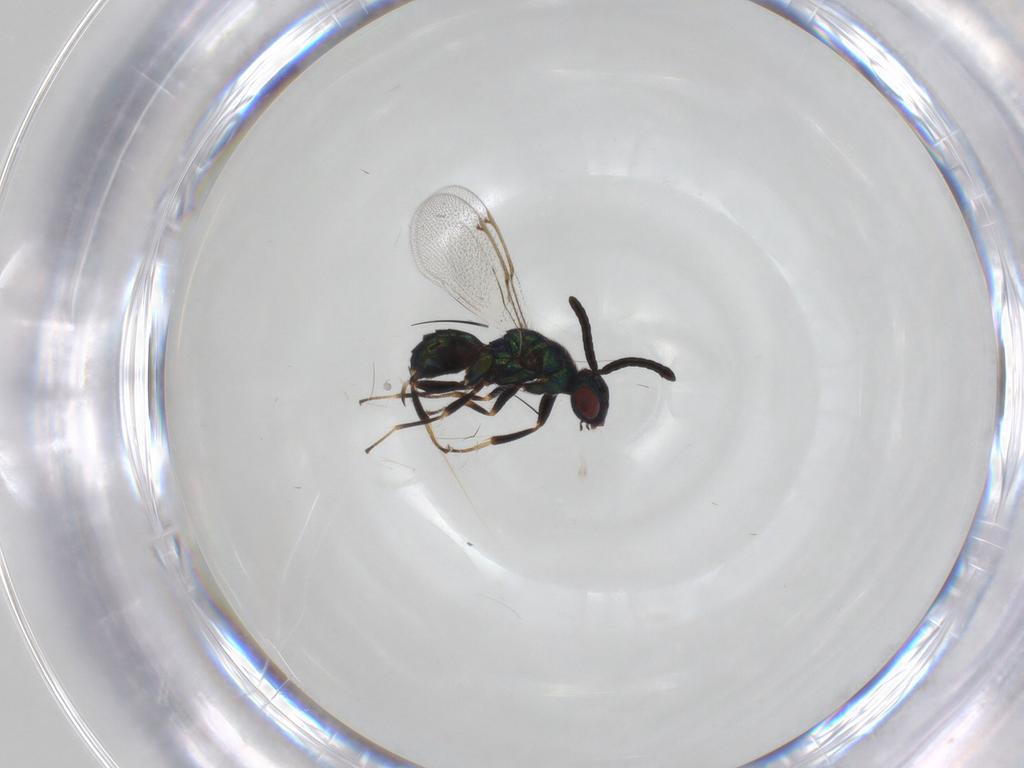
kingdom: Animalia
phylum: Arthropoda
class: Insecta
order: Hymenoptera
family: Torymidae
